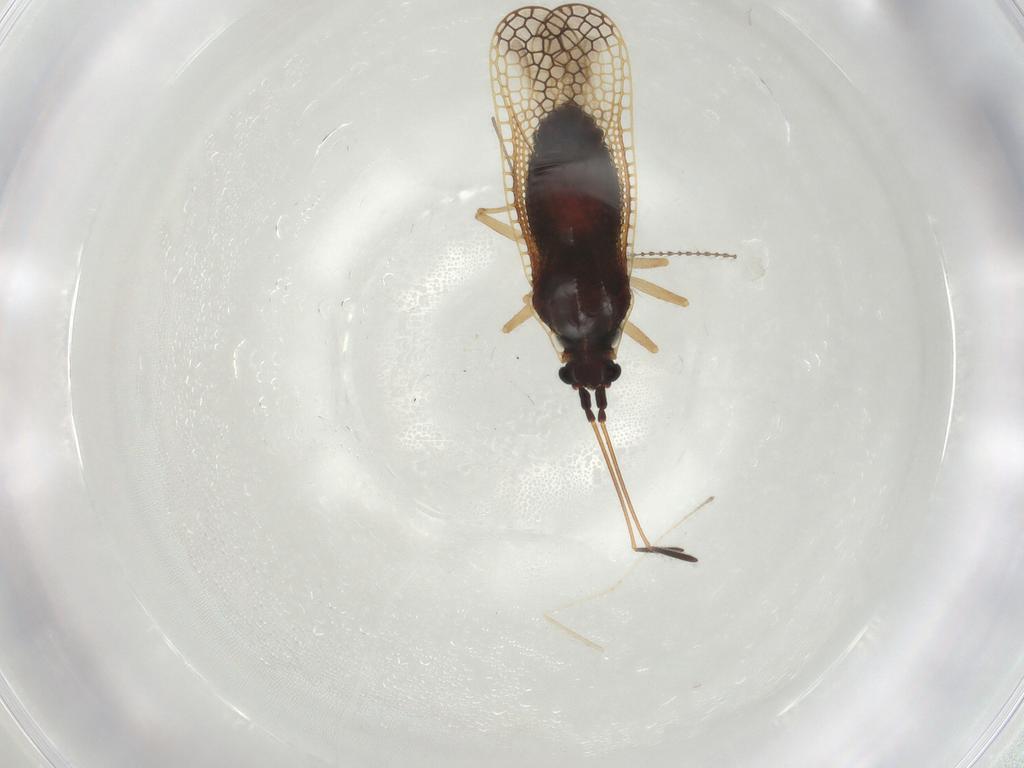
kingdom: Animalia
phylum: Arthropoda
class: Insecta
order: Hemiptera
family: Tingidae
